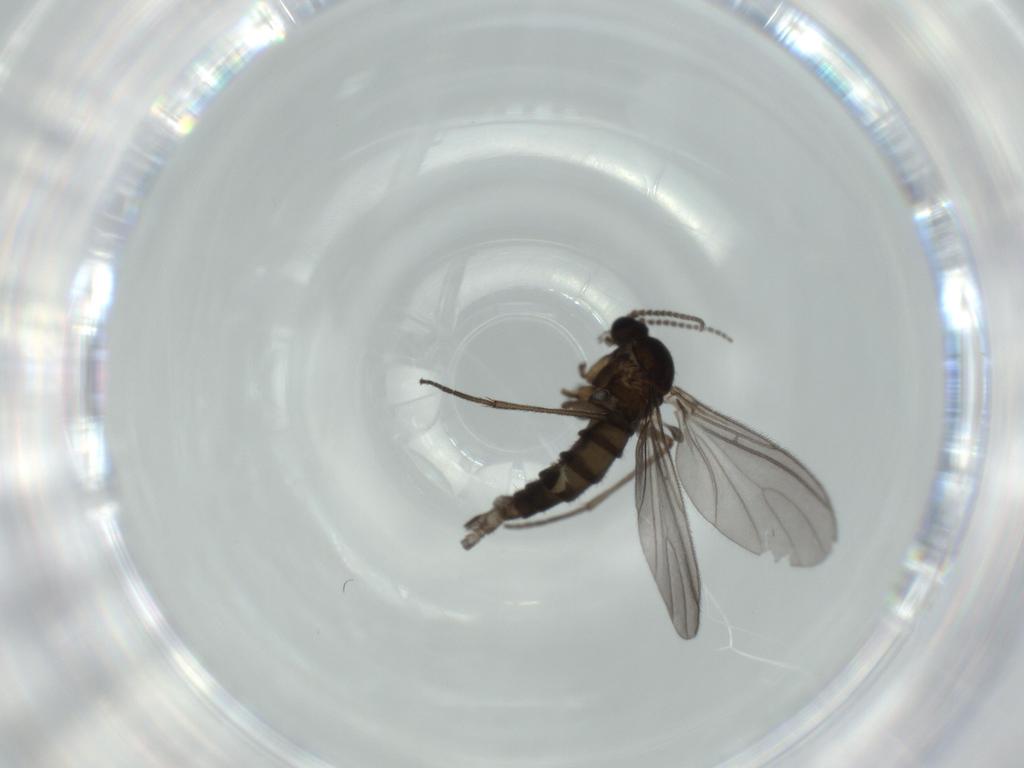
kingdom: Animalia
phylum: Arthropoda
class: Insecta
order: Diptera
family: Sciaridae
